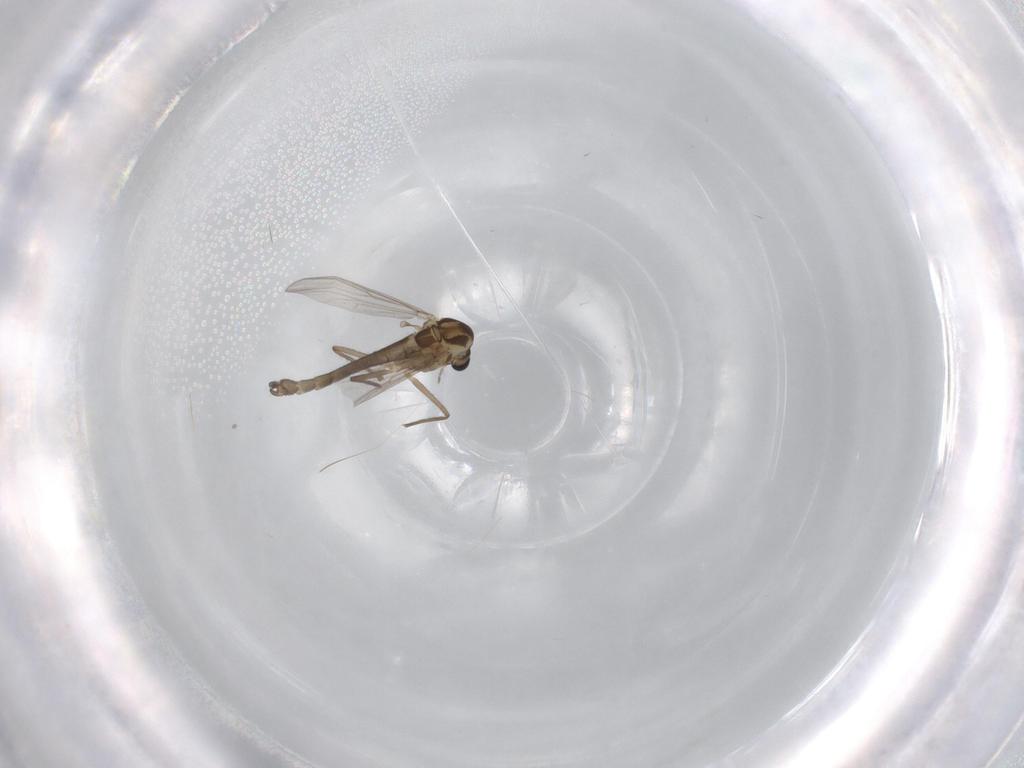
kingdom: Animalia
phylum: Arthropoda
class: Insecta
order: Diptera
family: Chironomidae
